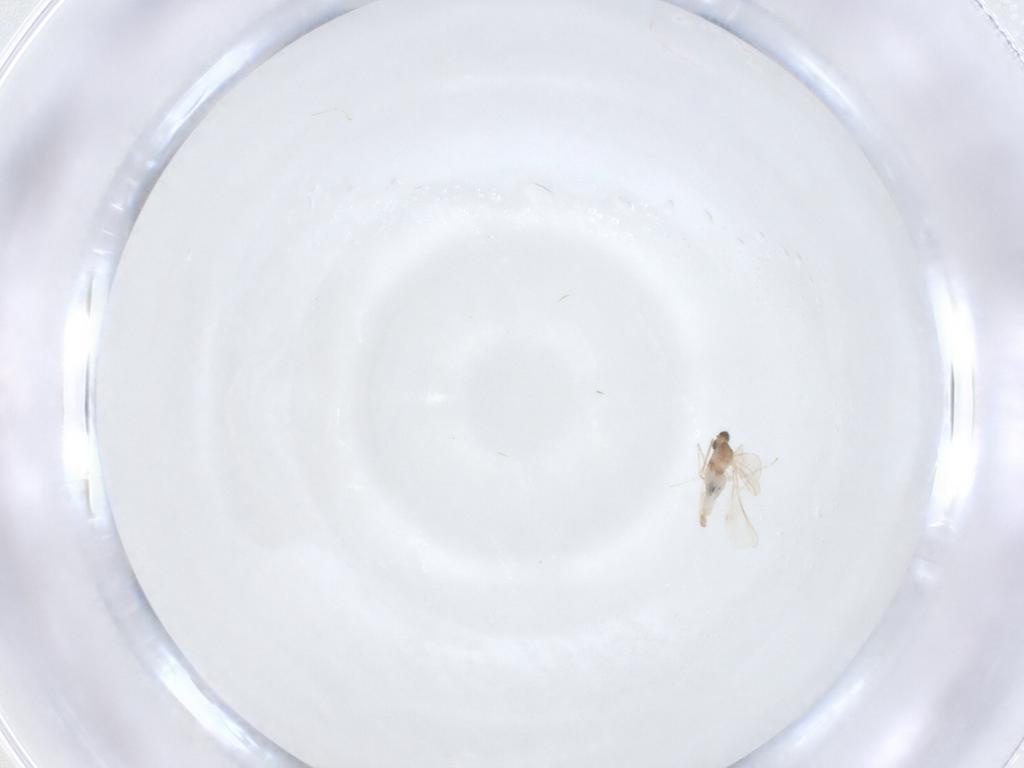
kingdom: Animalia
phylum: Arthropoda
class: Insecta
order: Diptera
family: Cecidomyiidae
